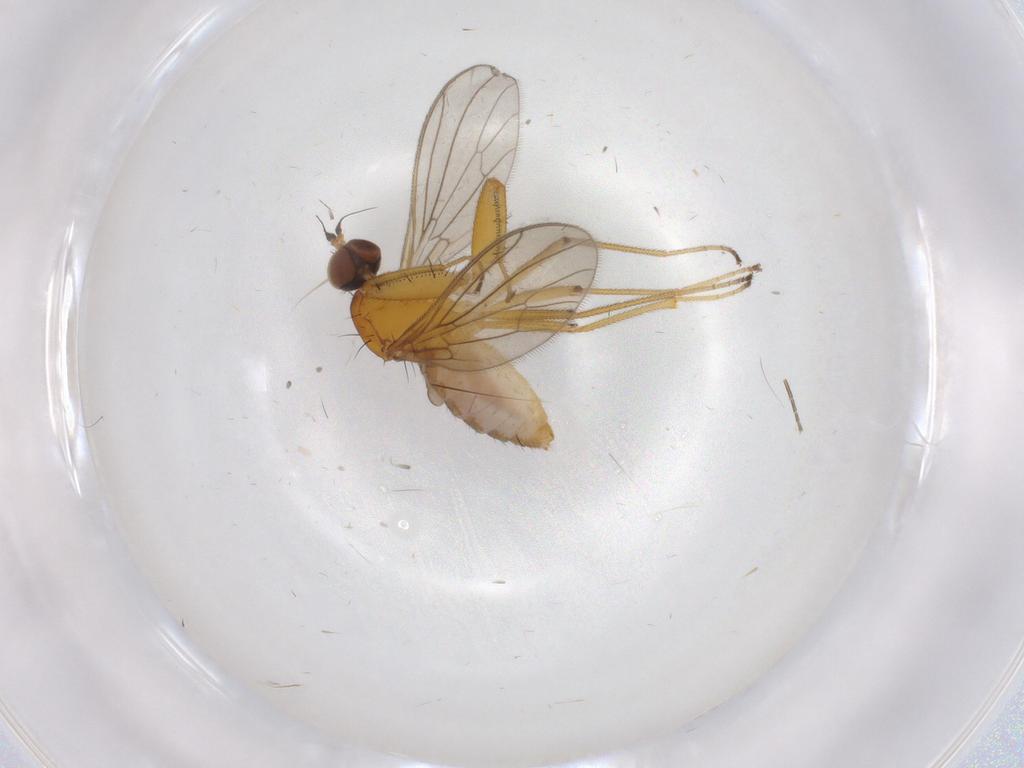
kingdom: Animalia
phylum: Arthropoda
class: Insecta
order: Diptera
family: Empididae
